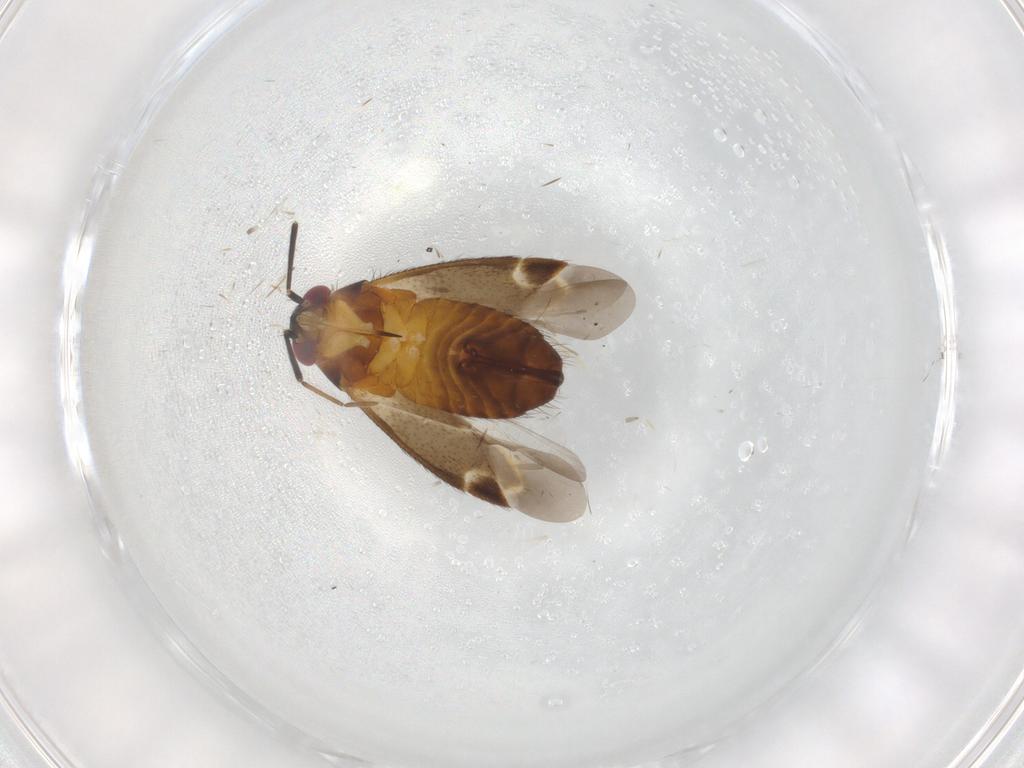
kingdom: Animalia
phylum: Arthropoda
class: Insecta
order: Hemiptera
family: Miridae
